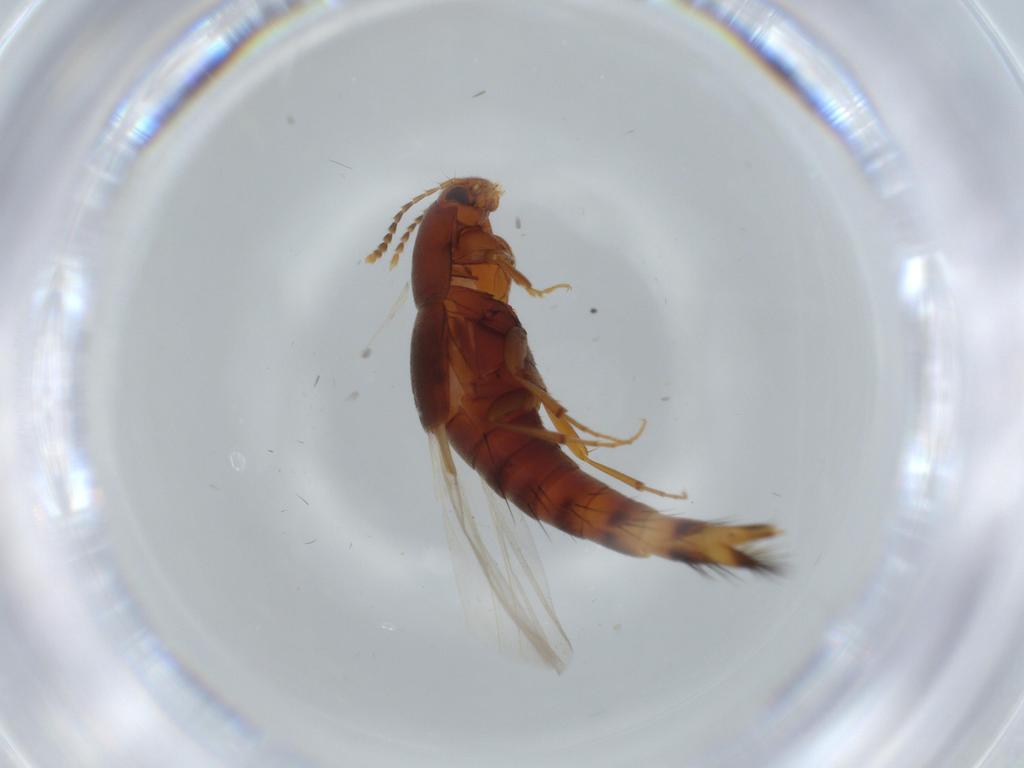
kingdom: Animalia
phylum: Arthropoda
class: Insecta
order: Coleoptera
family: Staphylinidae
